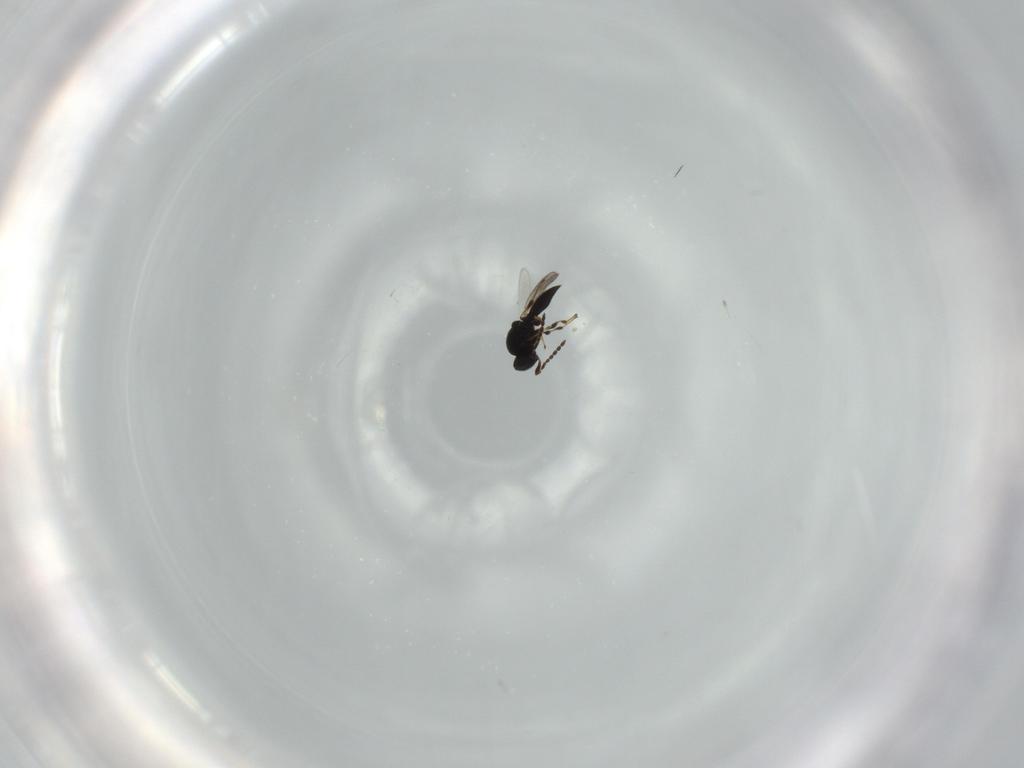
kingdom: Animalia
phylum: Arthropoda
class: Insecta
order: Hymenoptera
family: Platygastridae
